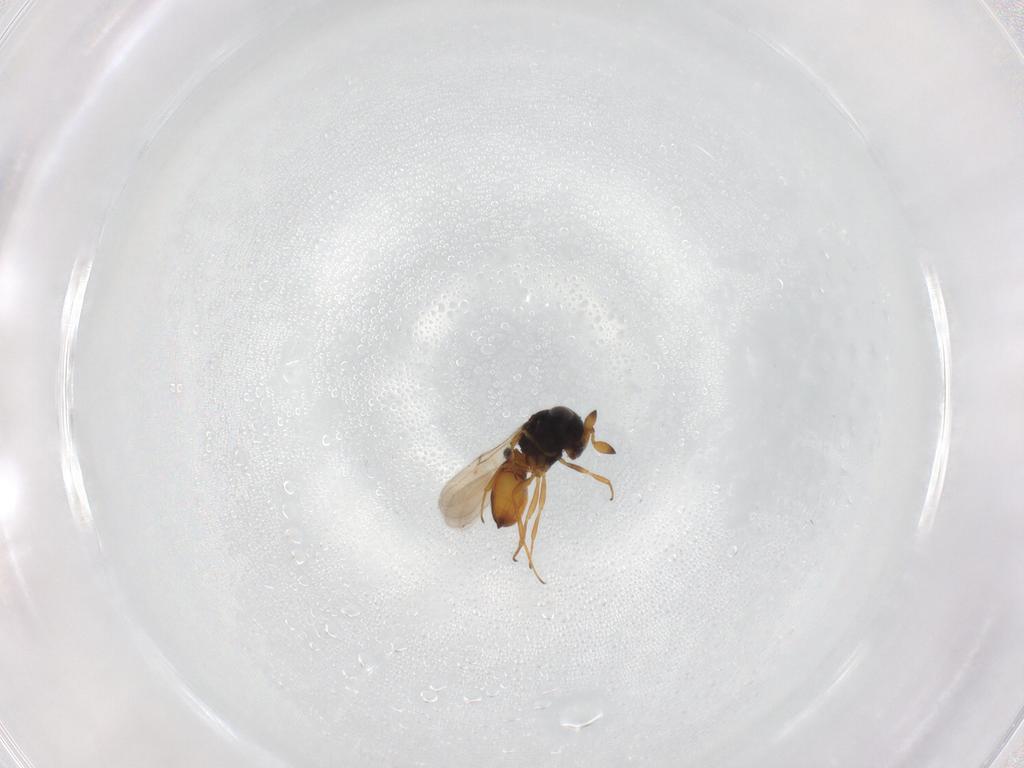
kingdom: Animalia
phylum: Arthropoda
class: Insecta
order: Hymenoptera
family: Scelionidae
